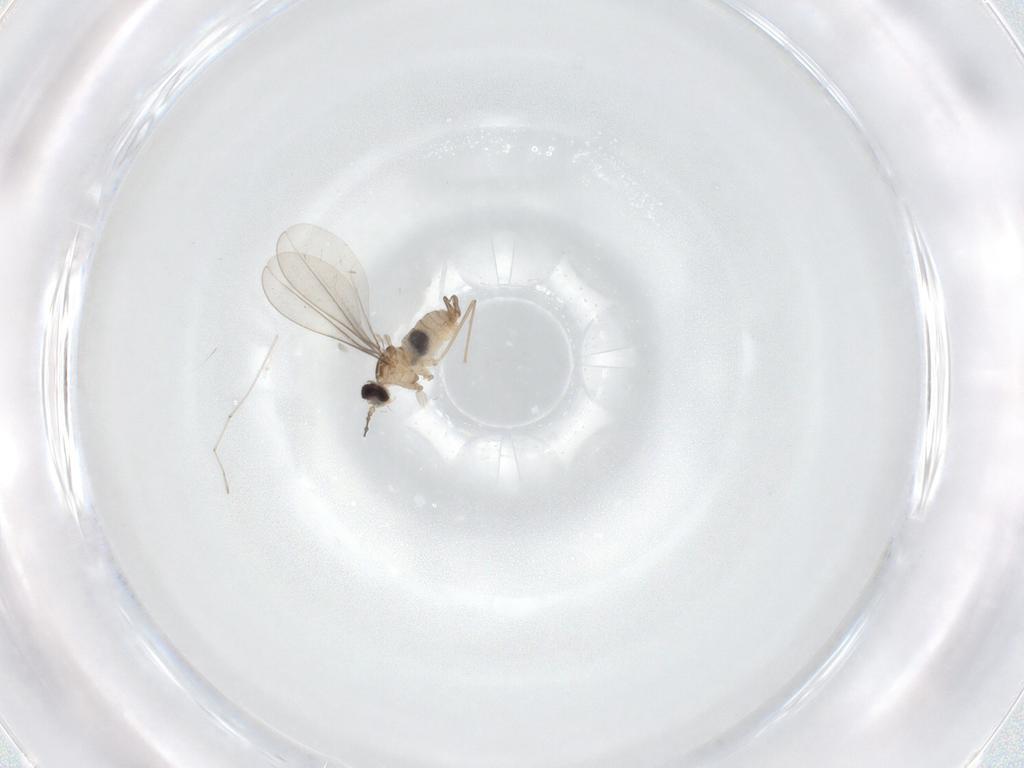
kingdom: Animalia
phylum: Arthropoda
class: Insecta
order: Diptera
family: Cecidomyiidae
